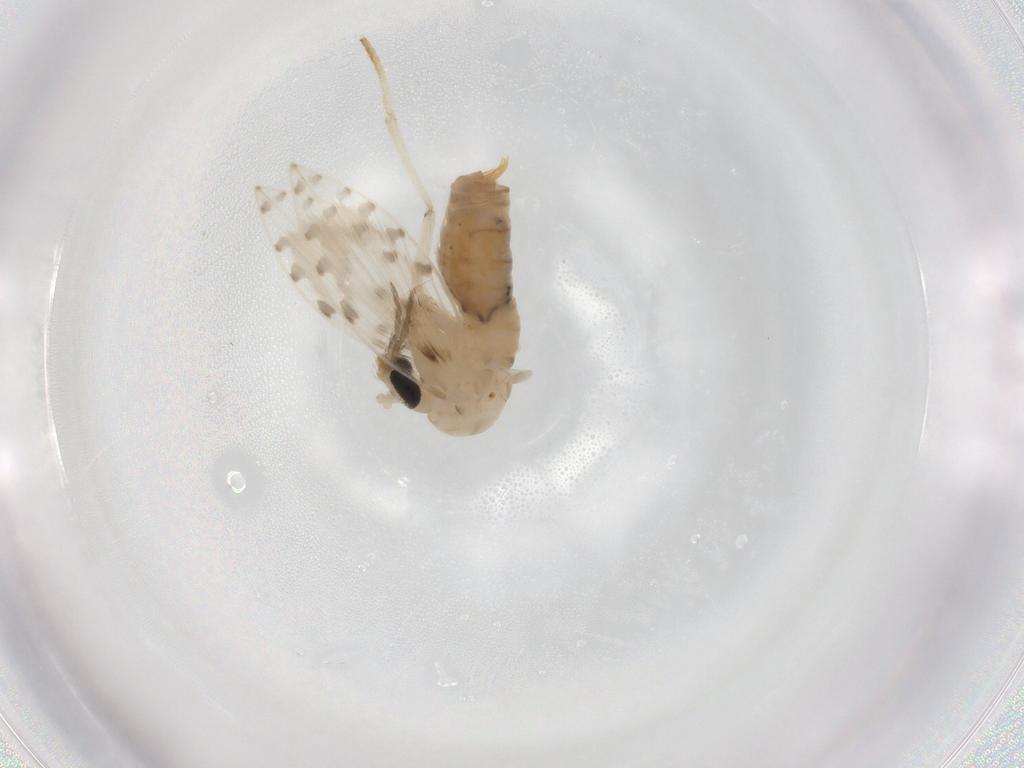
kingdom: Animalia
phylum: Arthropoda
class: Insecta
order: Diptera
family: Psychodidae
